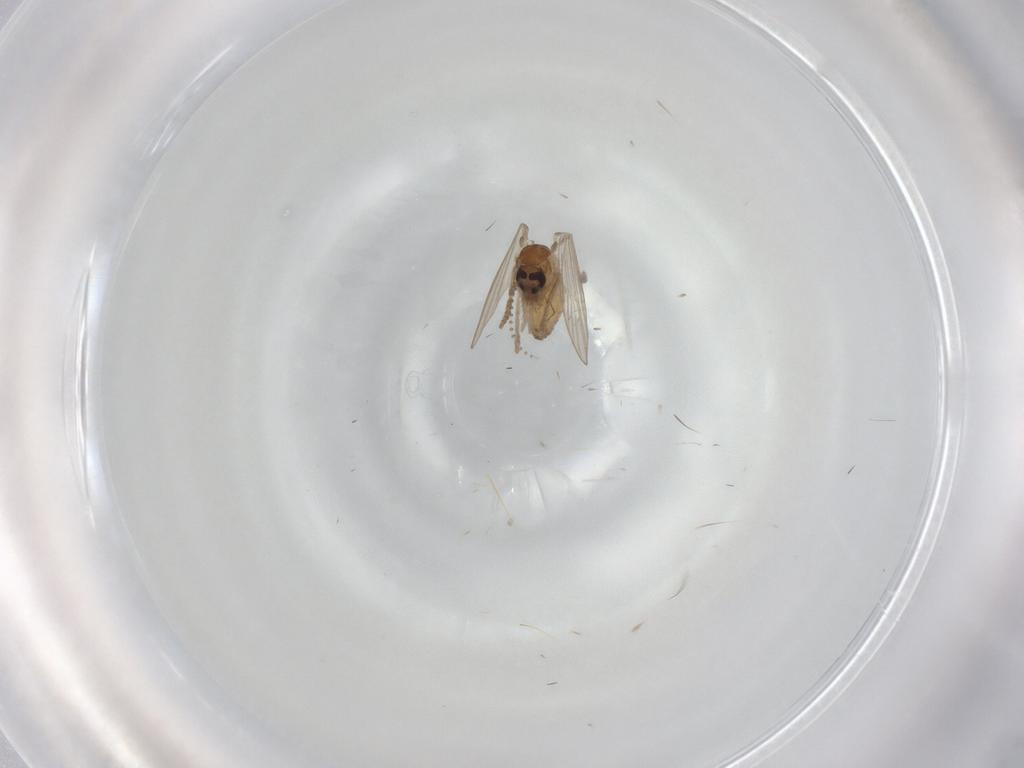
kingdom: Animalia
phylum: Arthropoda
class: Insecta
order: Diptera
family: Psychodidae
